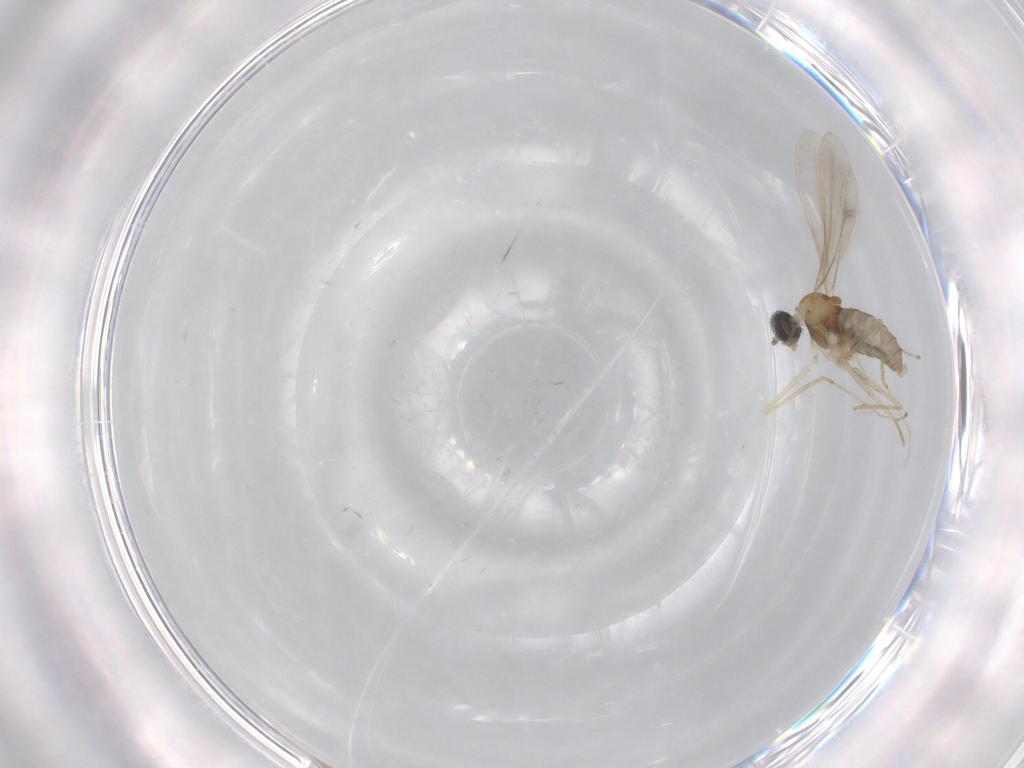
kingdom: Animalia
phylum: Arthropoda
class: Insecta
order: Diptera
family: Cecidomyiidae
